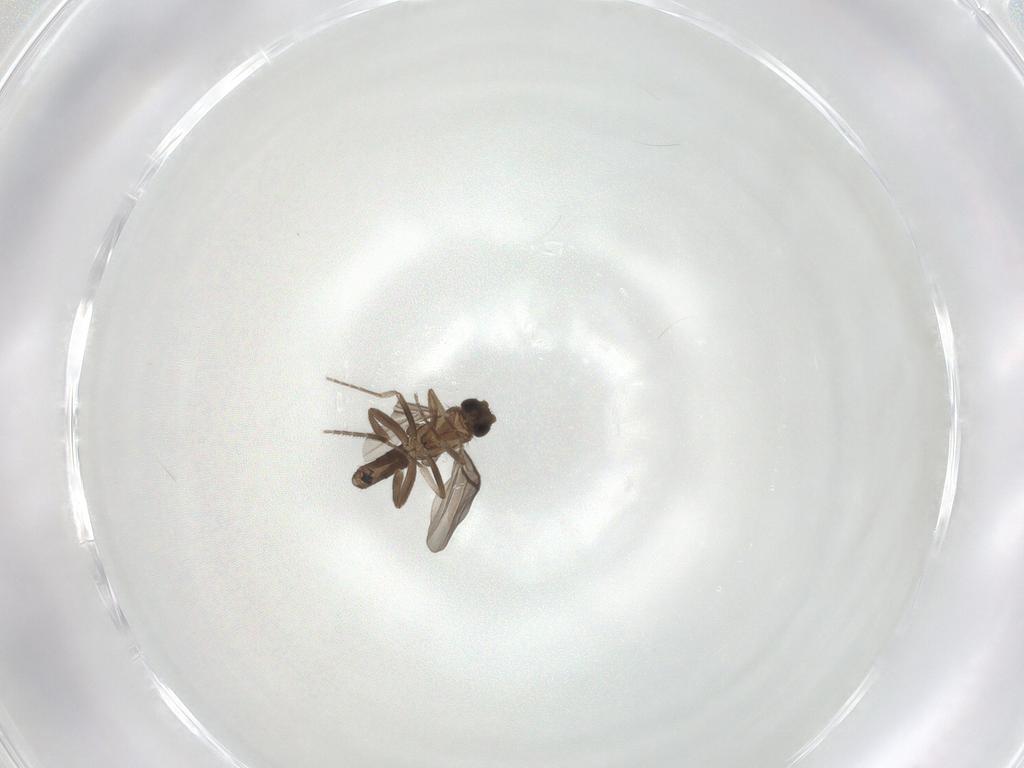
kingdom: Animalia
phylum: Arthropoda
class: Insecta
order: Diptera
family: Phoridae
